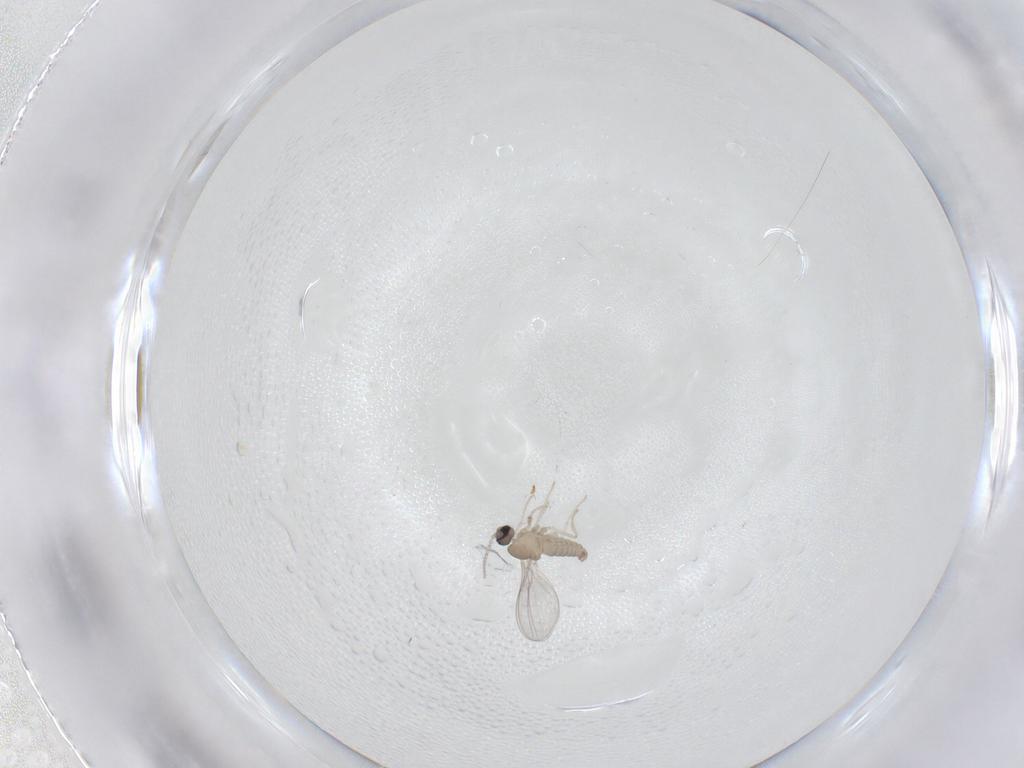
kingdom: Animalia
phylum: Arthropoda
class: Insecta
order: Diptera
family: Cecidomyiidae
